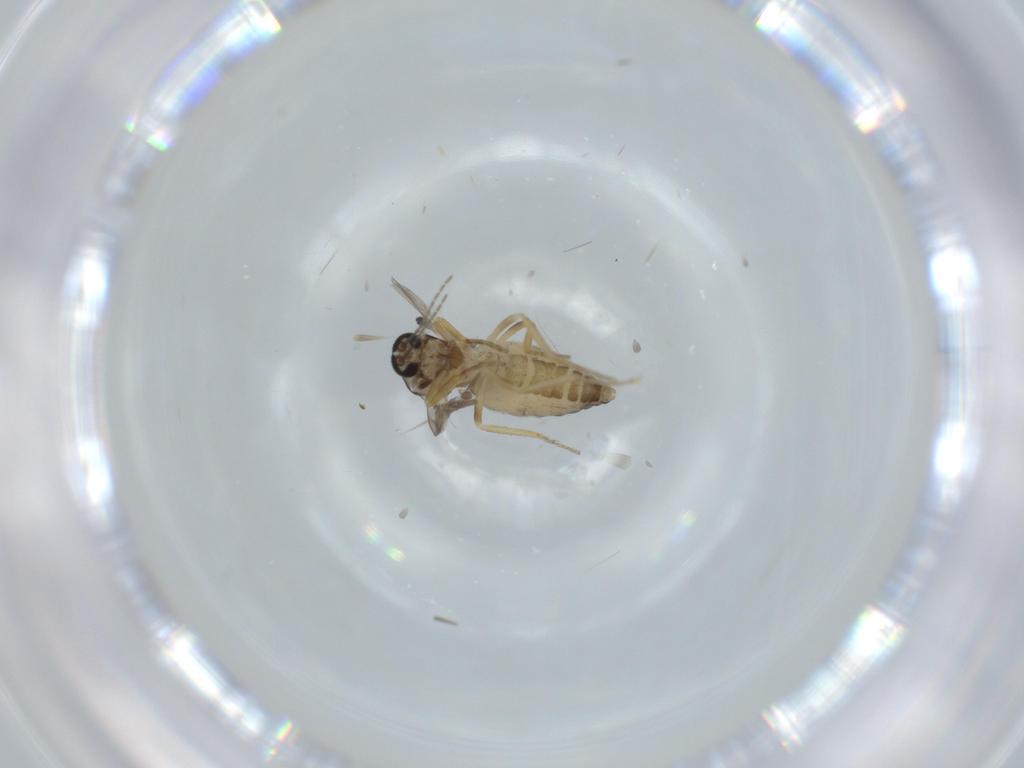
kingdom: Animalia
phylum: Arthropoda
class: Insecta
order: Diptera
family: Ceratopogonidae
